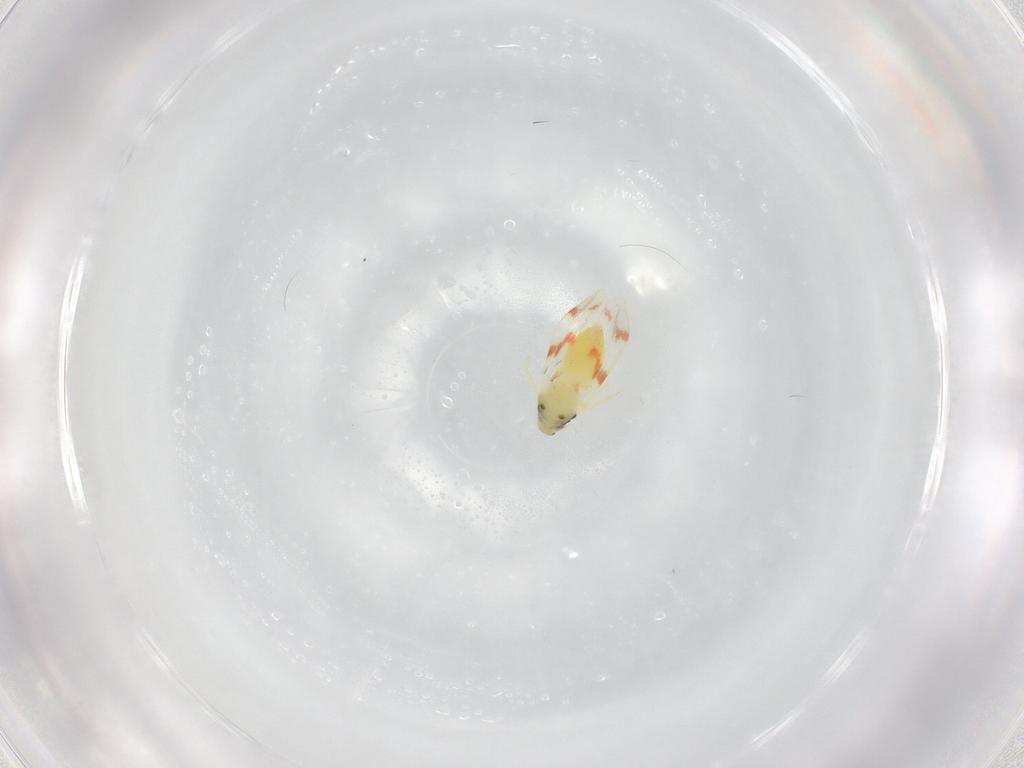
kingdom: Animalia
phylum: Arthropoda
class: Insecta
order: Hemiptera
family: Aleyrodidae
